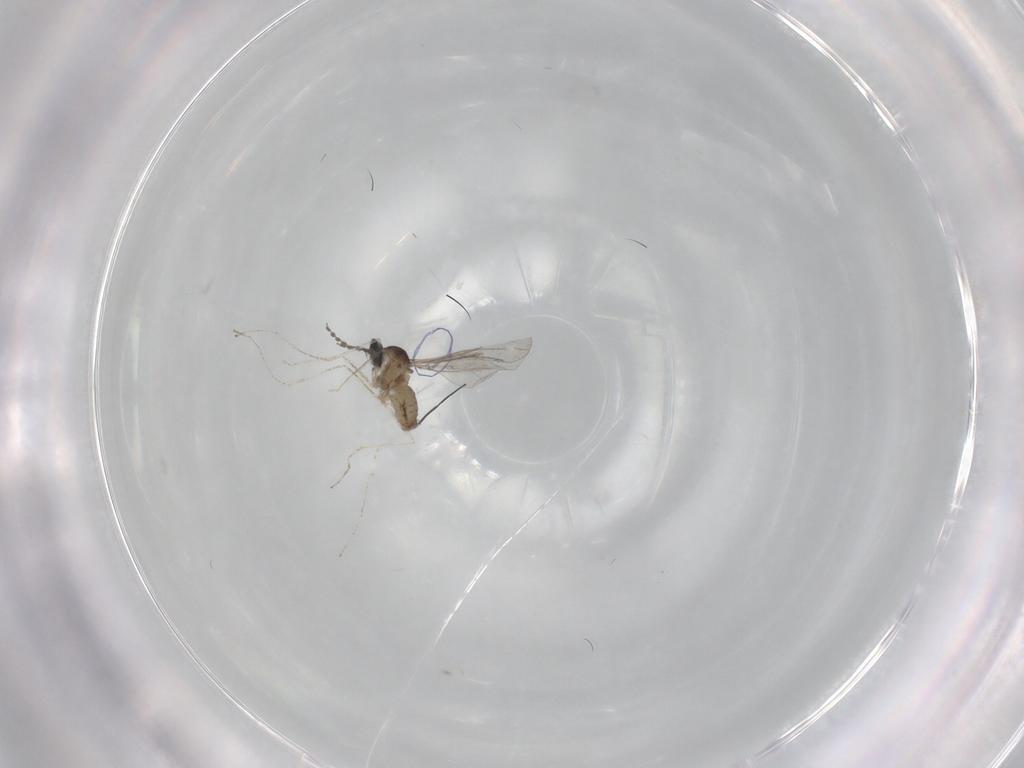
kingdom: Animalia
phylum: Arthropoda
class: Insecta
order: Diptera
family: Cecidomyiidae
